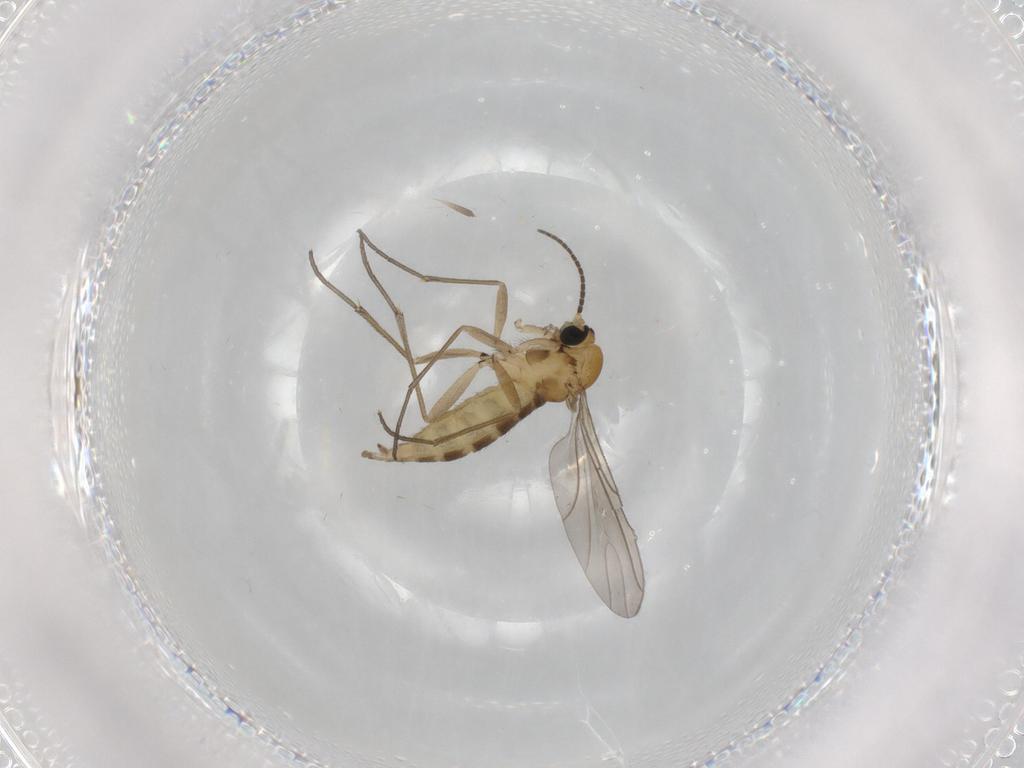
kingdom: Animalia
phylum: Arthropoda
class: Insecta
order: Diptera
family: Sciaridae
